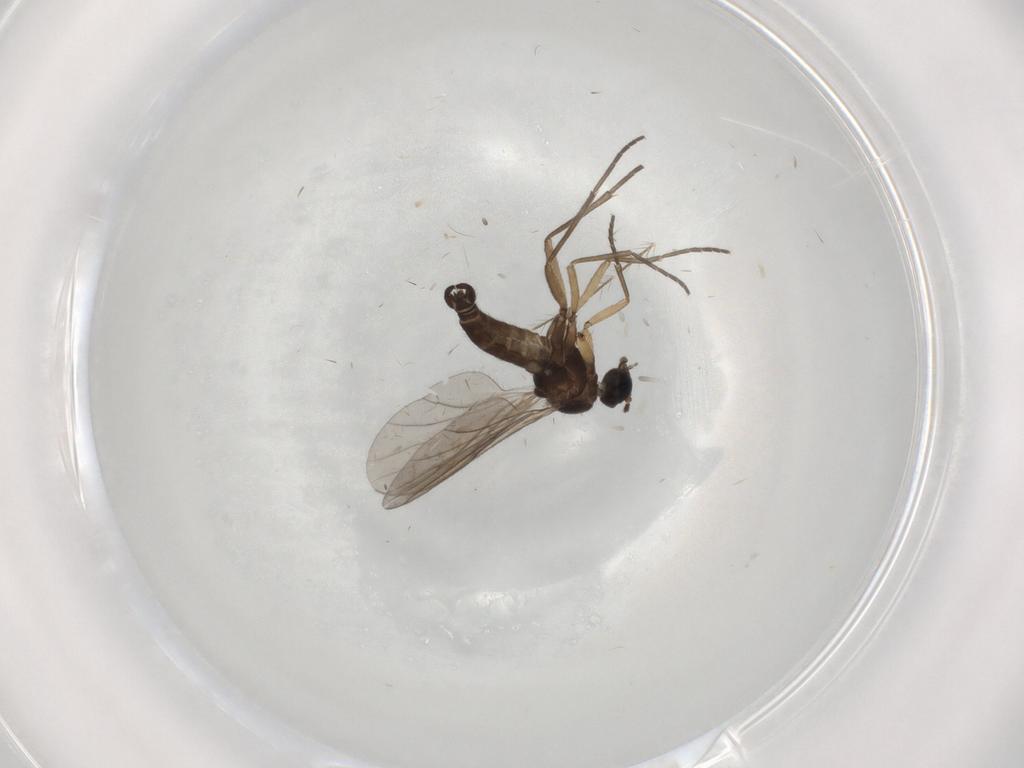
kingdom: Animalia
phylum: Arthropoda
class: Insecta
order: Diptera
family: Sciaridae
